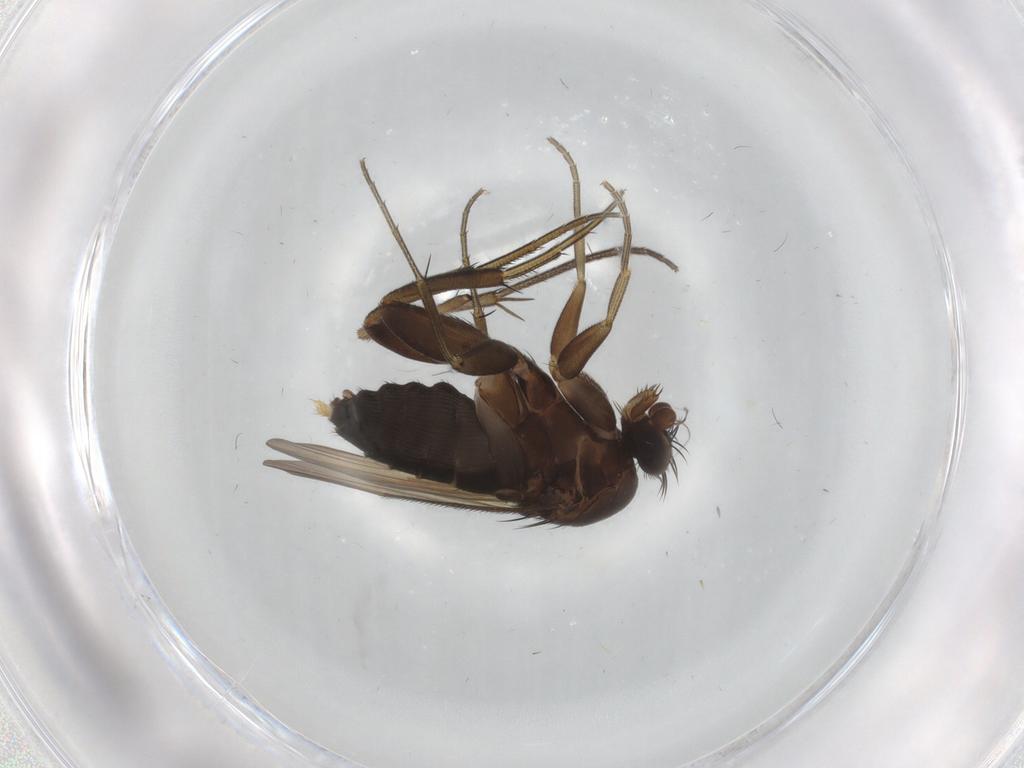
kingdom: Animalia
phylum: Arthropoda
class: Insecta
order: Diptera
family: Phoridae
